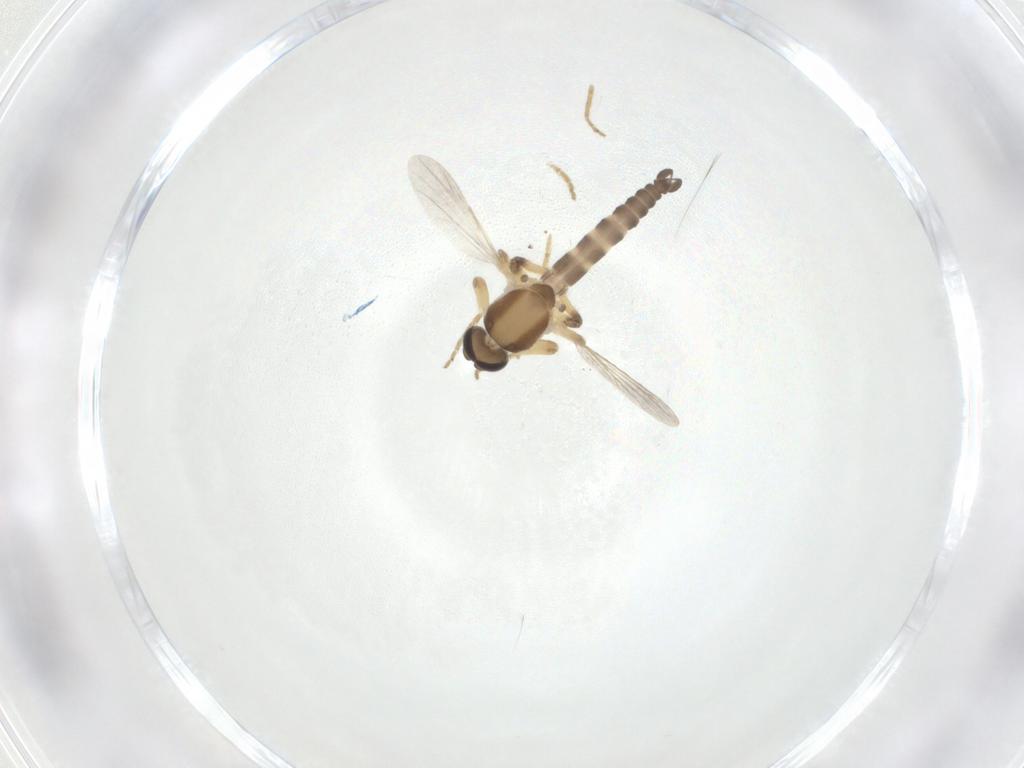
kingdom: Animalia
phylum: Arthropoda
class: Insecta
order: Diptera
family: Ceratopogonidae
